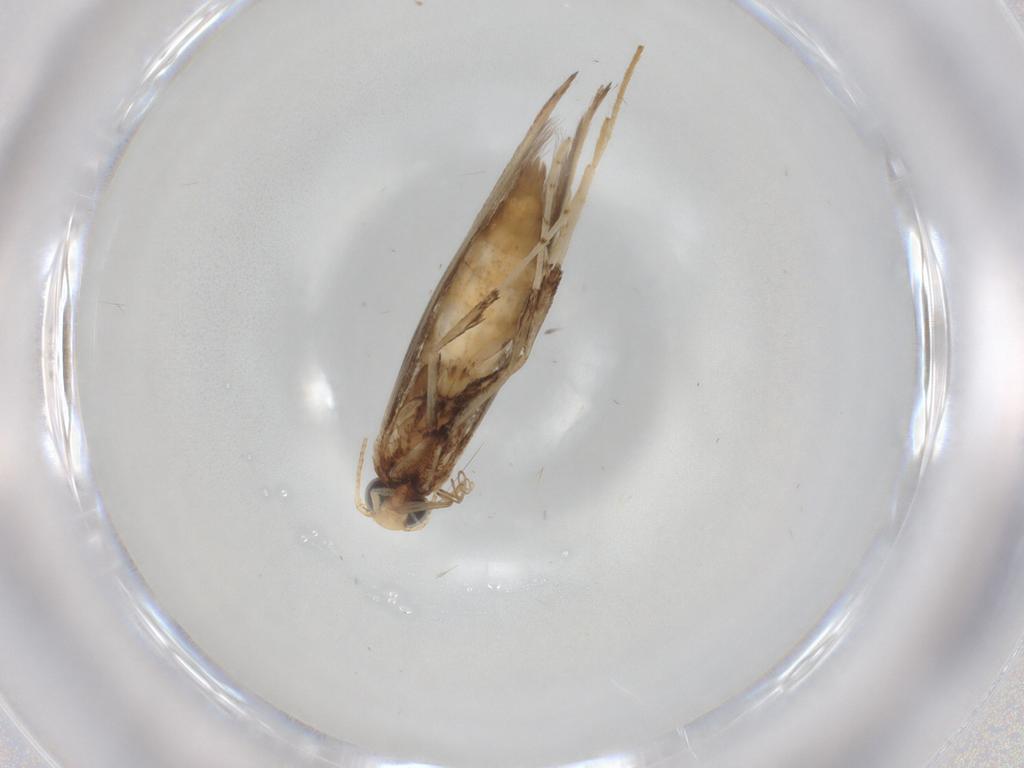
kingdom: Animalia
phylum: Arthropoda
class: Insecta
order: Lepidoptera
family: Gracillariidae
